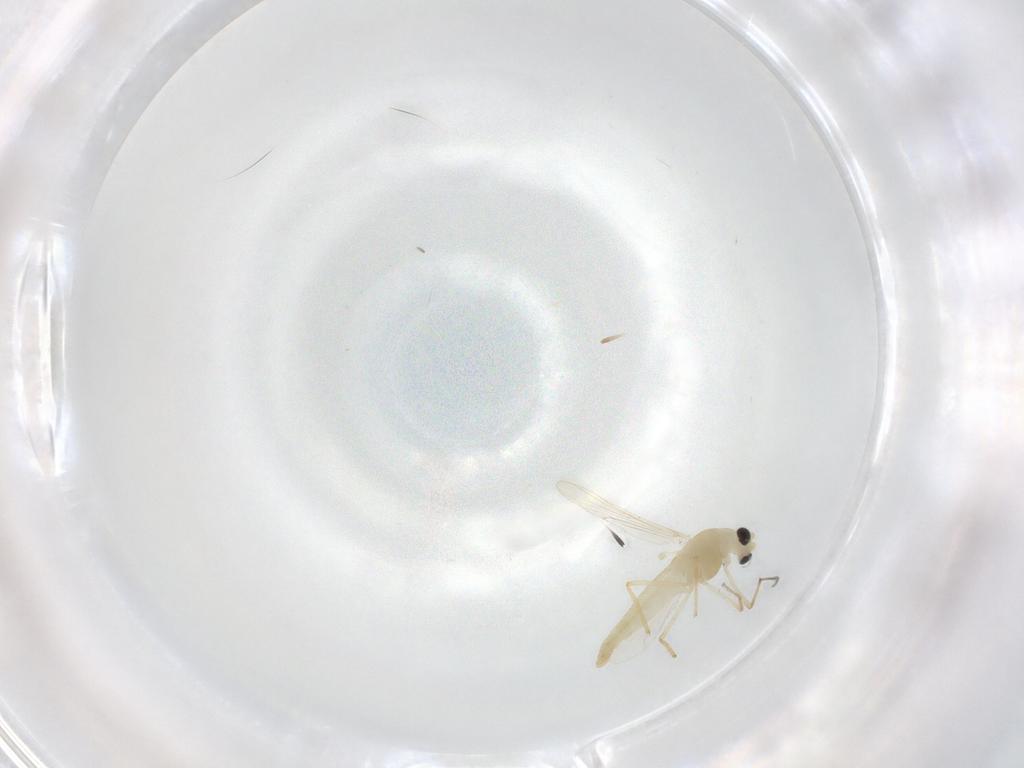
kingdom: Animalia
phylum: Arthropoda
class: Insecta
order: Diptera
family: Chironomidae
